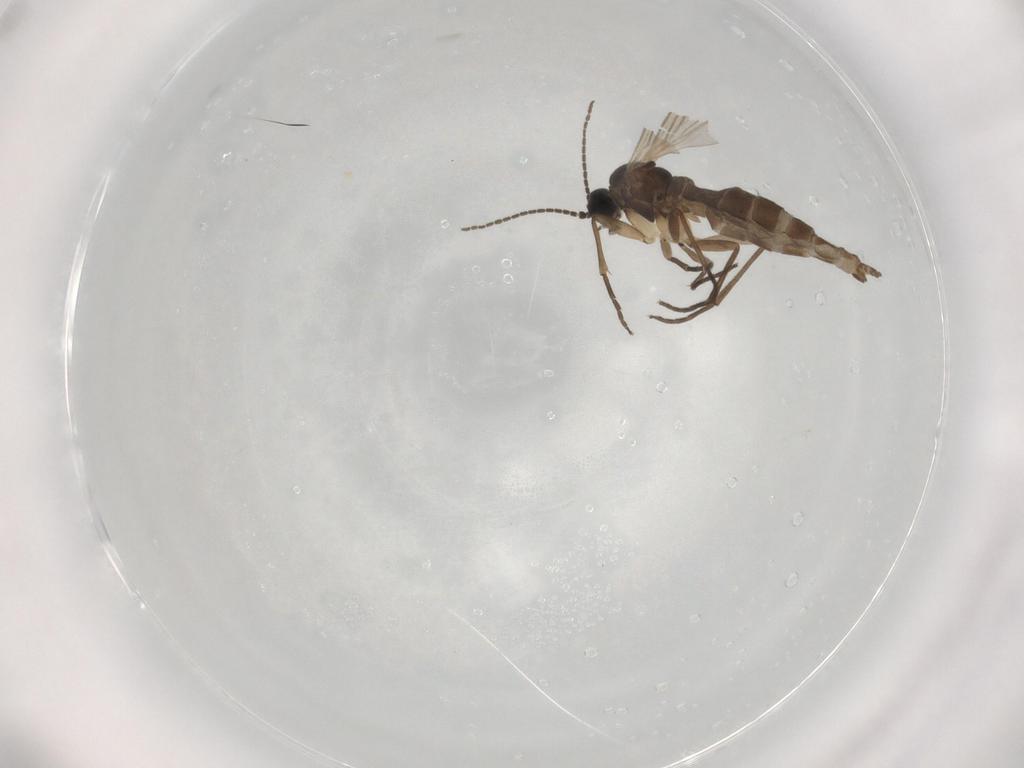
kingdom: Animalia
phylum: Arthropoda
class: Insecta
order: Diptera
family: Sciaridae
